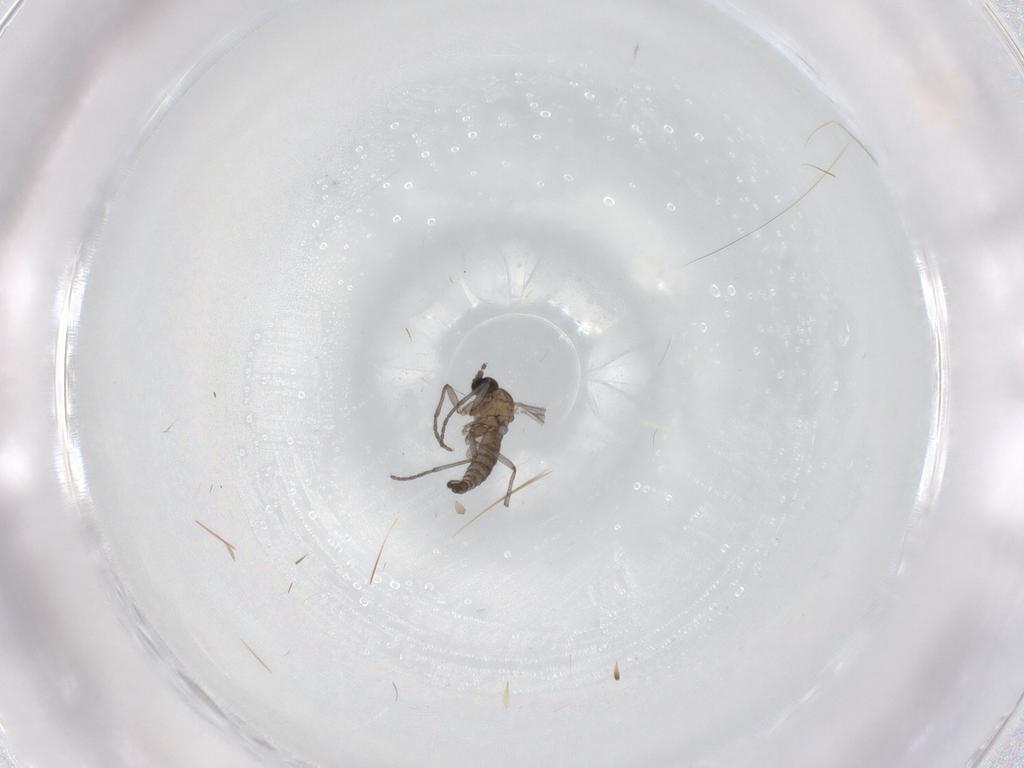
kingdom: Animalia
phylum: Arthropoda
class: Insecta
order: Diptera
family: Sciaridae
